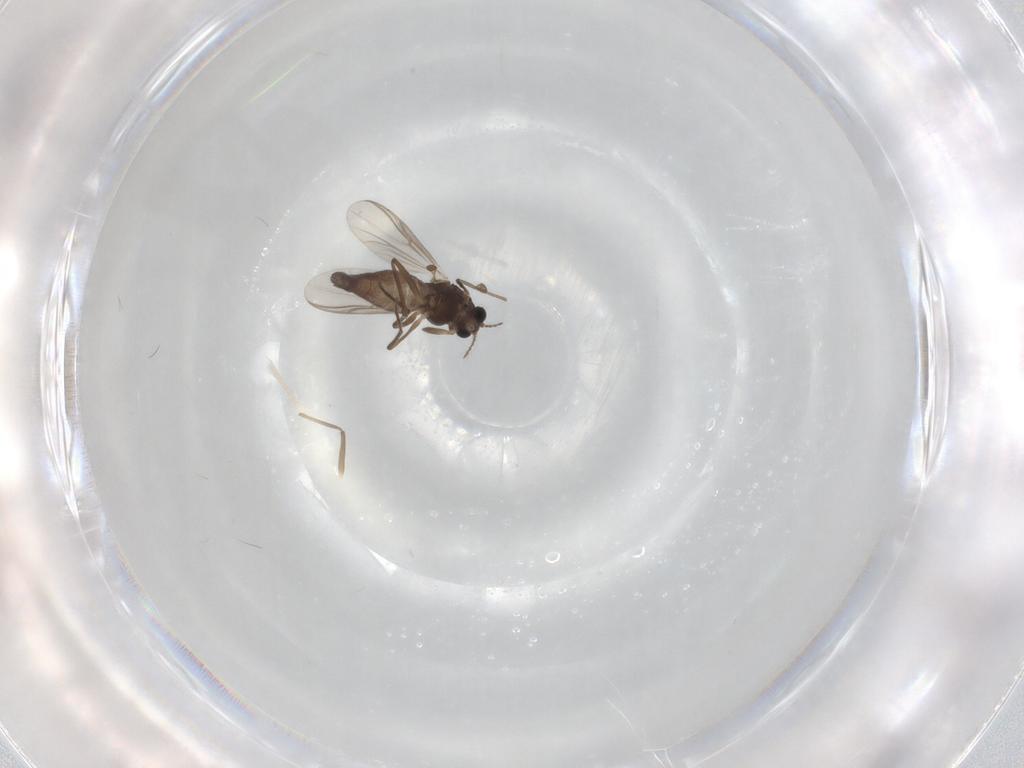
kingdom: Animalia
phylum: Arthropoda
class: Insecta
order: Diptera
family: Chironomidae
